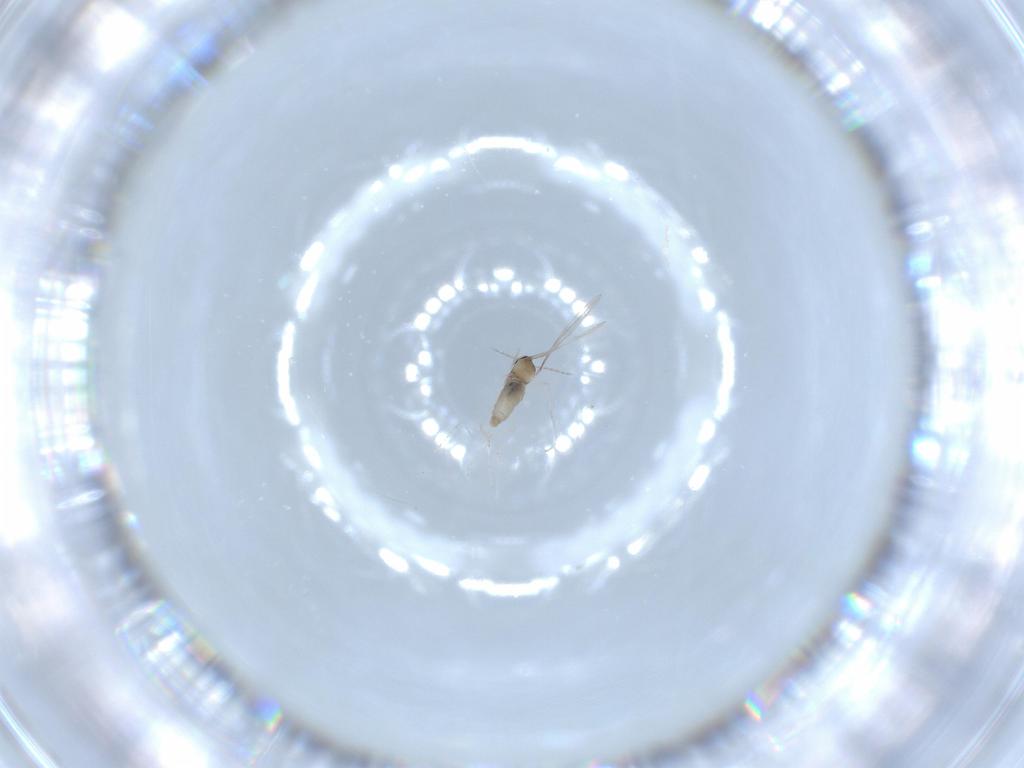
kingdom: Animalia
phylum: Arthropoda
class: Insecta
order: Diptera
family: Cecidomyiidae
